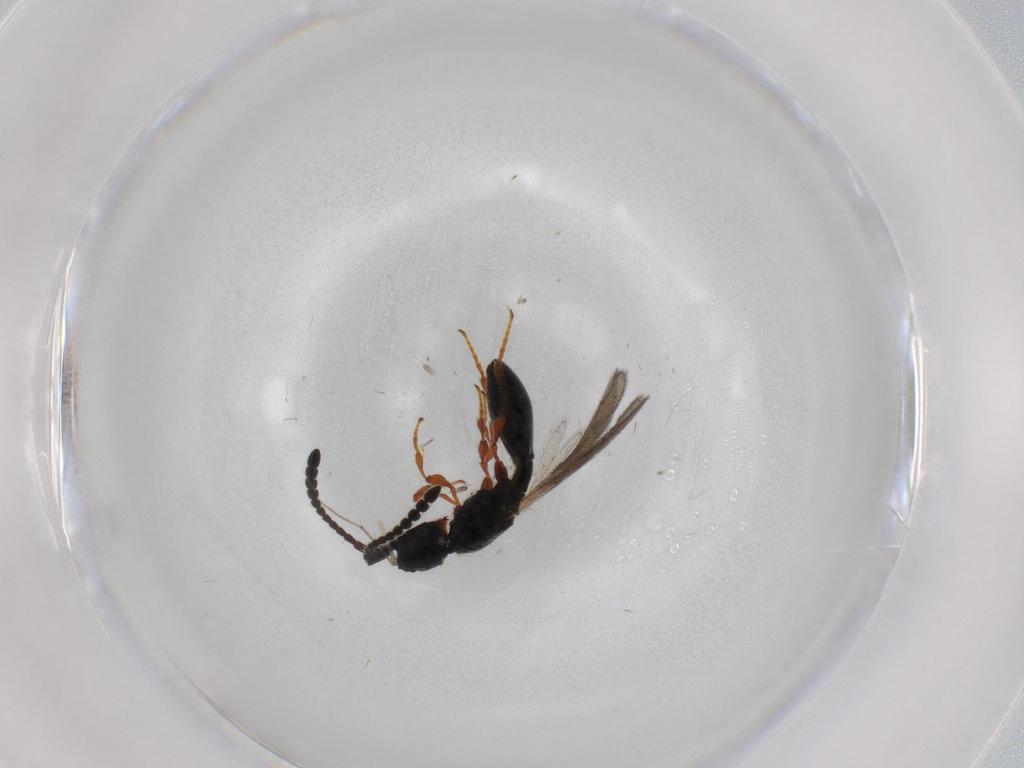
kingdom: Animalia
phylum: Arthropoda
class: Insecta
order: Hymenoptera
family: Diapriidae
